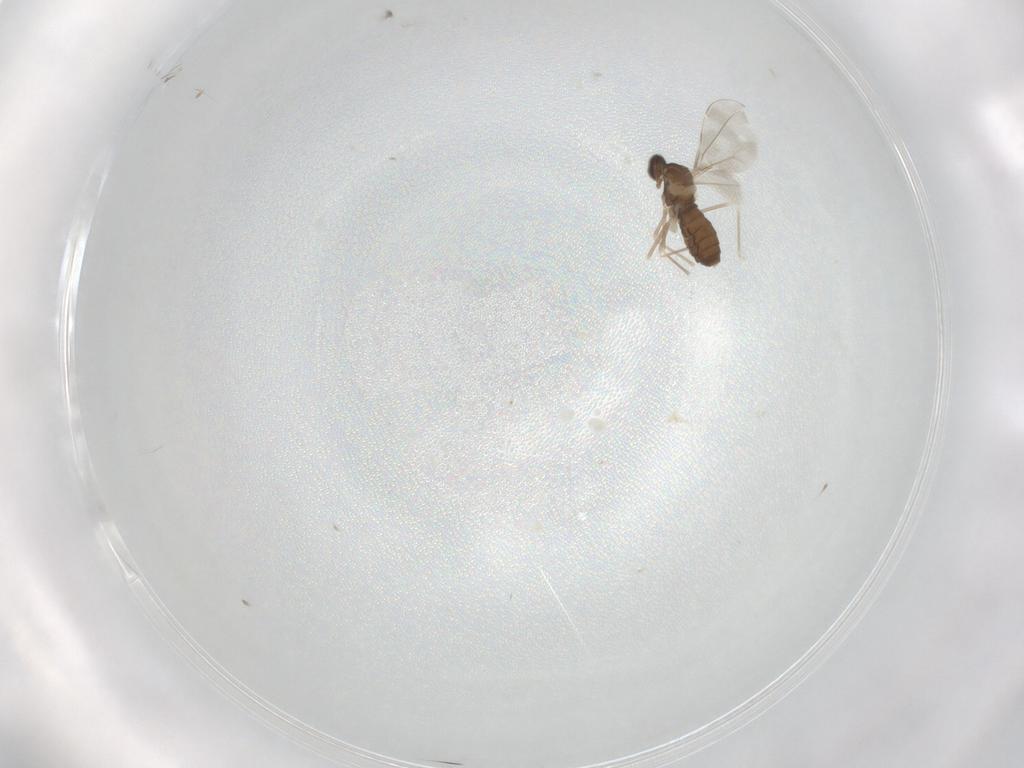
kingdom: Animalia
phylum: Arthropoda
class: Insecta
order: Diptera
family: Cecidomyiidae
